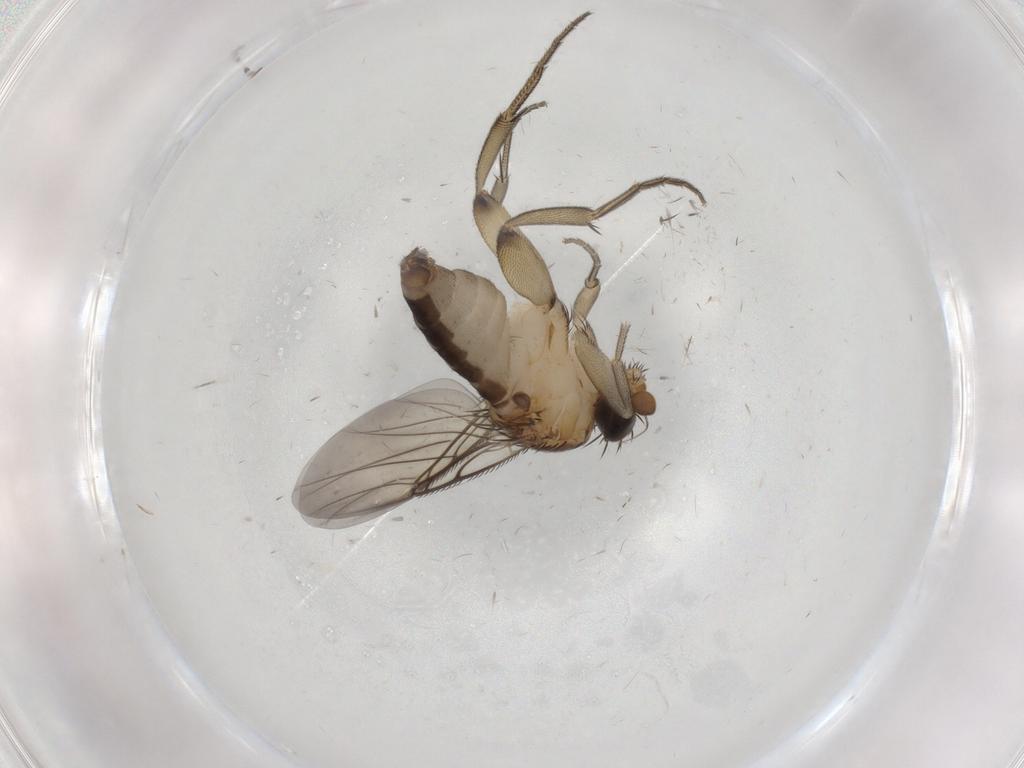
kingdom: Animalia
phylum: Arthropoda
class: Insecta
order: Diptera
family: Phoridae
